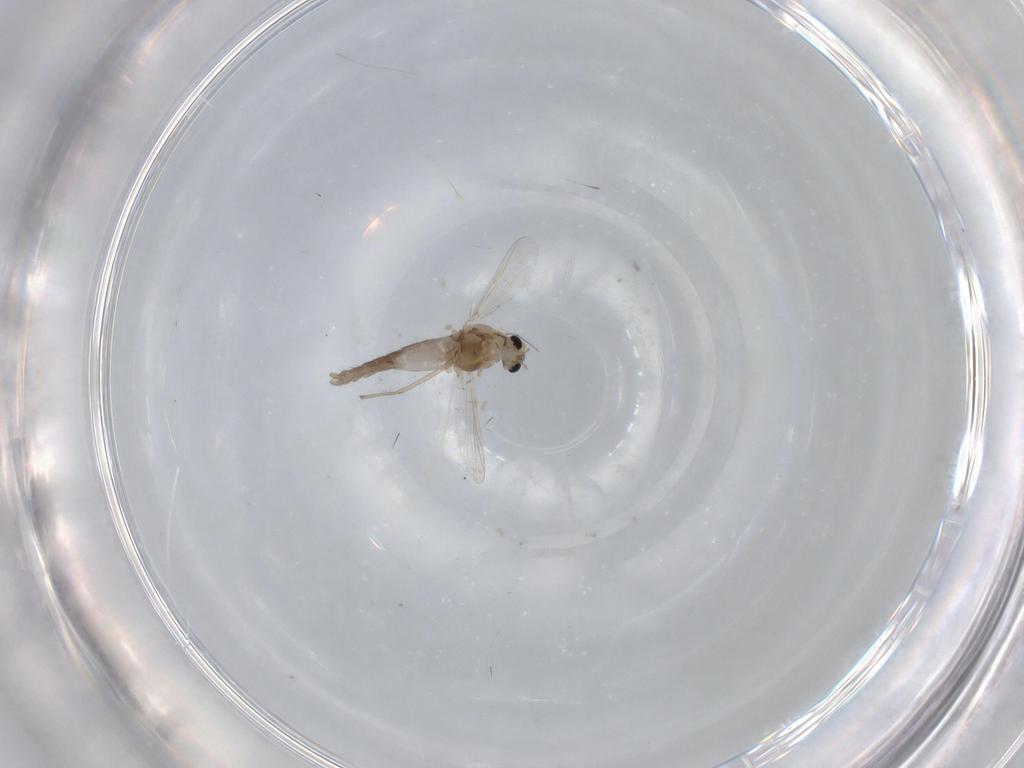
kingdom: Animalia
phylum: Arthropoda
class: Insecta
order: Diptera
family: Chironomidae
